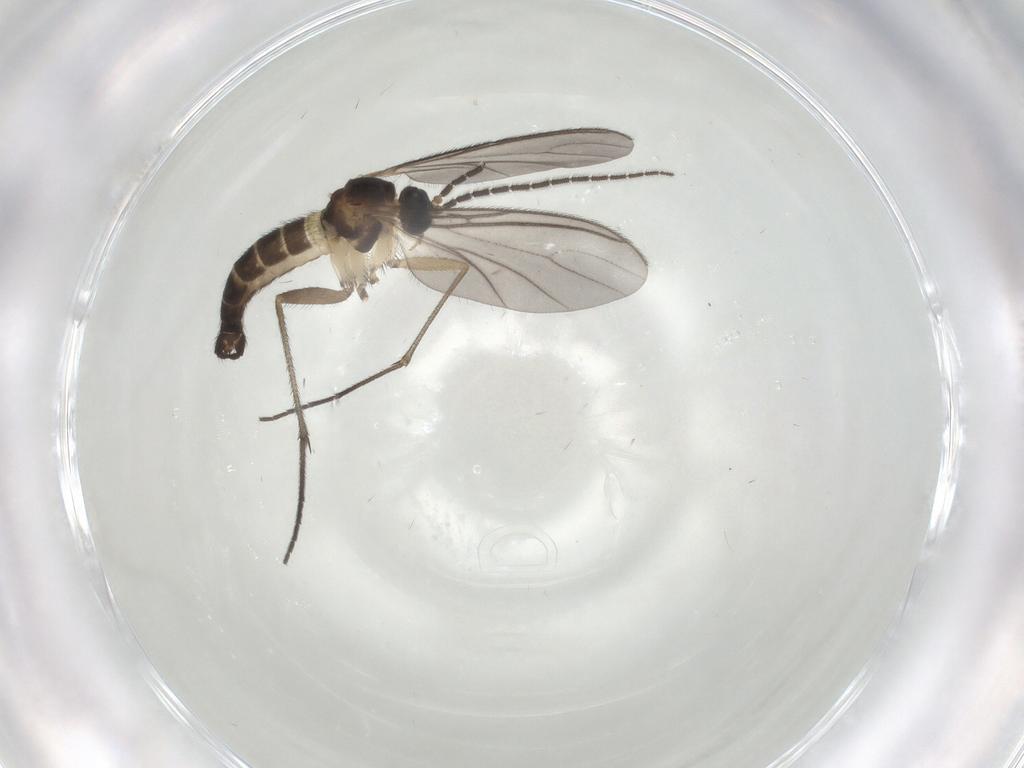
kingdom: Animalia
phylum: Arthropoda
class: Insecta
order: Diptera
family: Sciaridae
